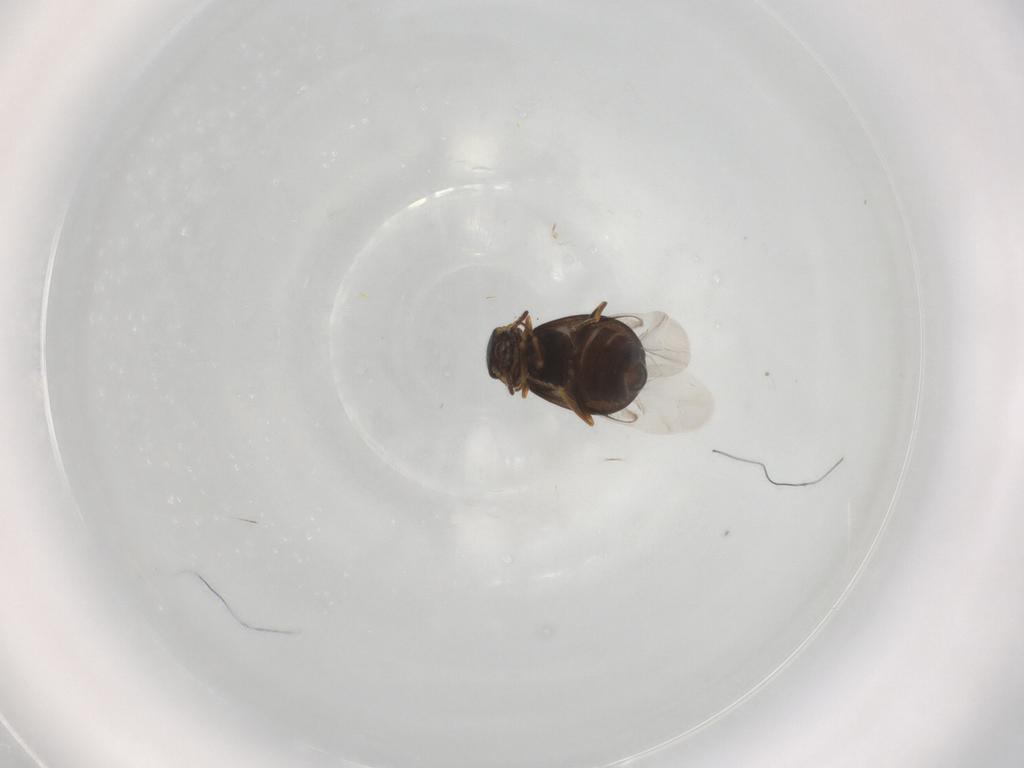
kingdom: Animalia
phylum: Arthropoda
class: Insecta
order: Coleoptera
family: Melyridae
